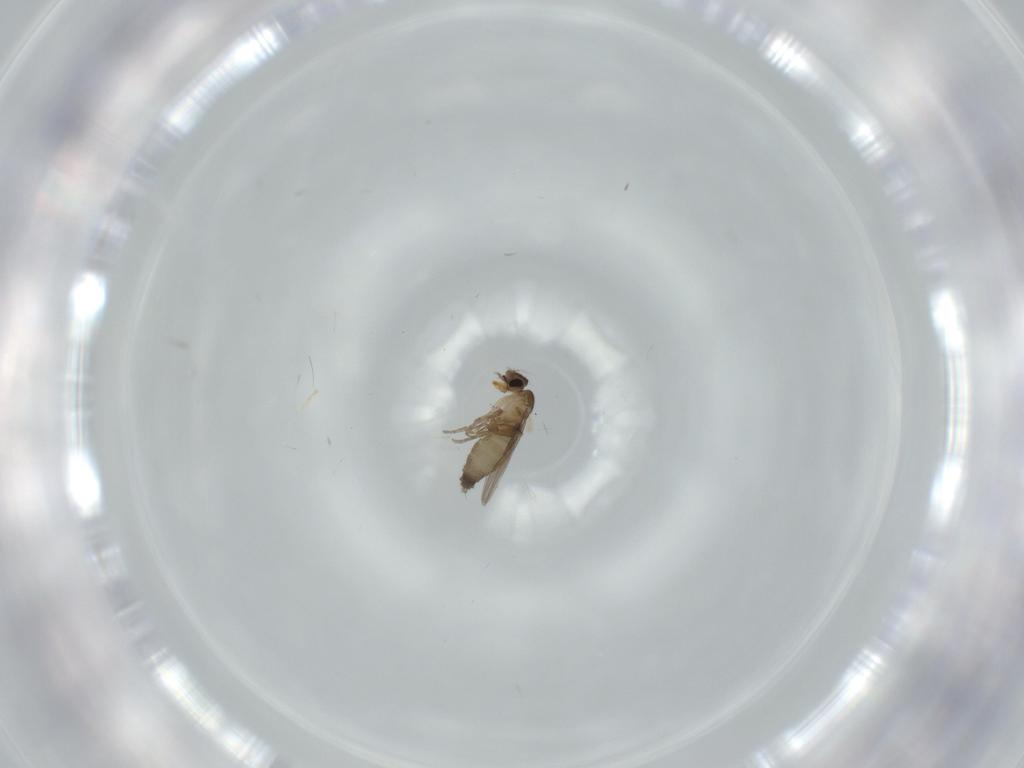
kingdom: Animalia
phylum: Arthropoda
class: Insecta
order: Diptera
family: Phoridae
